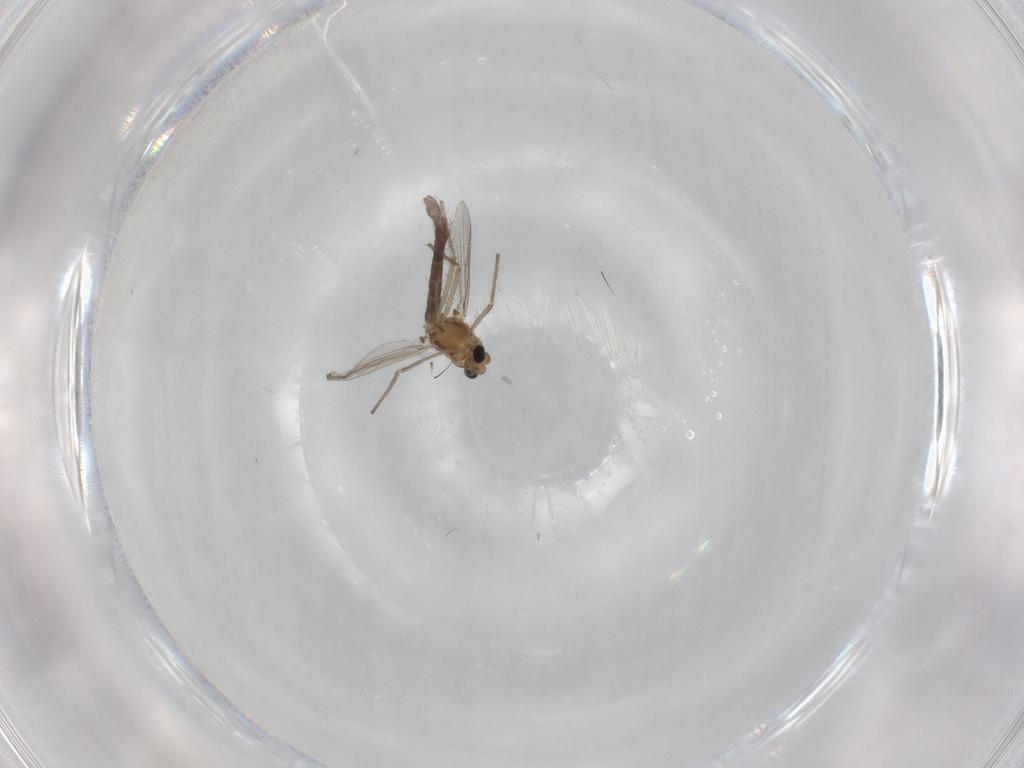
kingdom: Animalia
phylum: Arthropoda
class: Insecta
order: Diptera
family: Chironomidae
